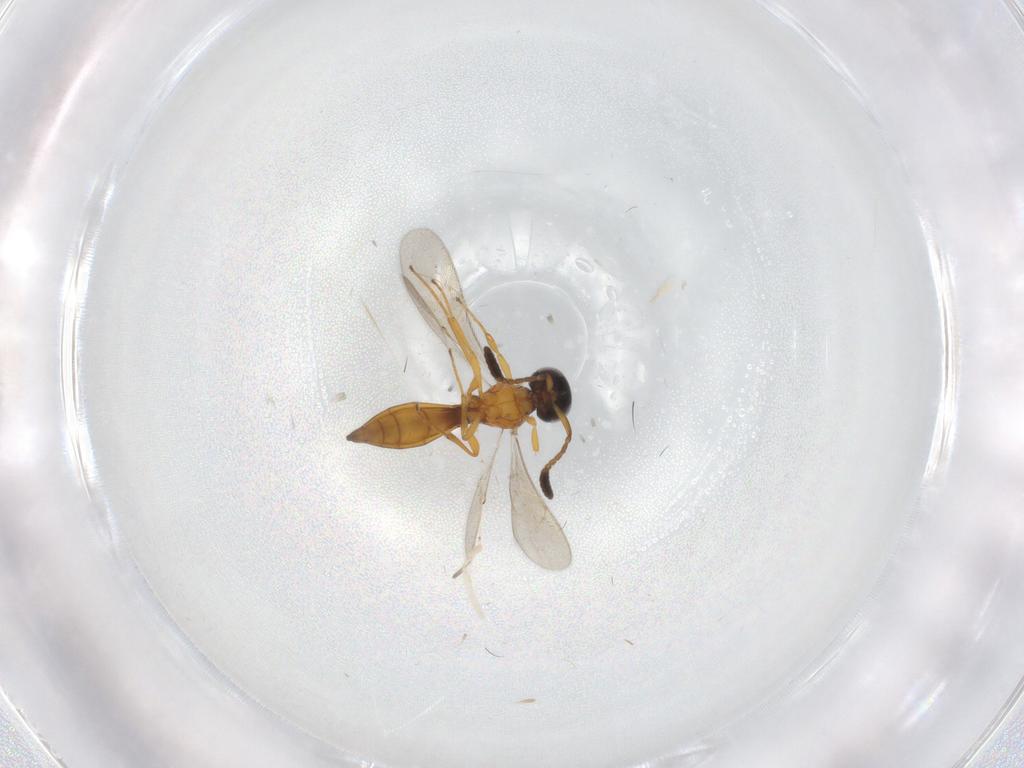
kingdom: Animalia
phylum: Arthropoda
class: Insecta
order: Hymenoptera
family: Scelionidae
